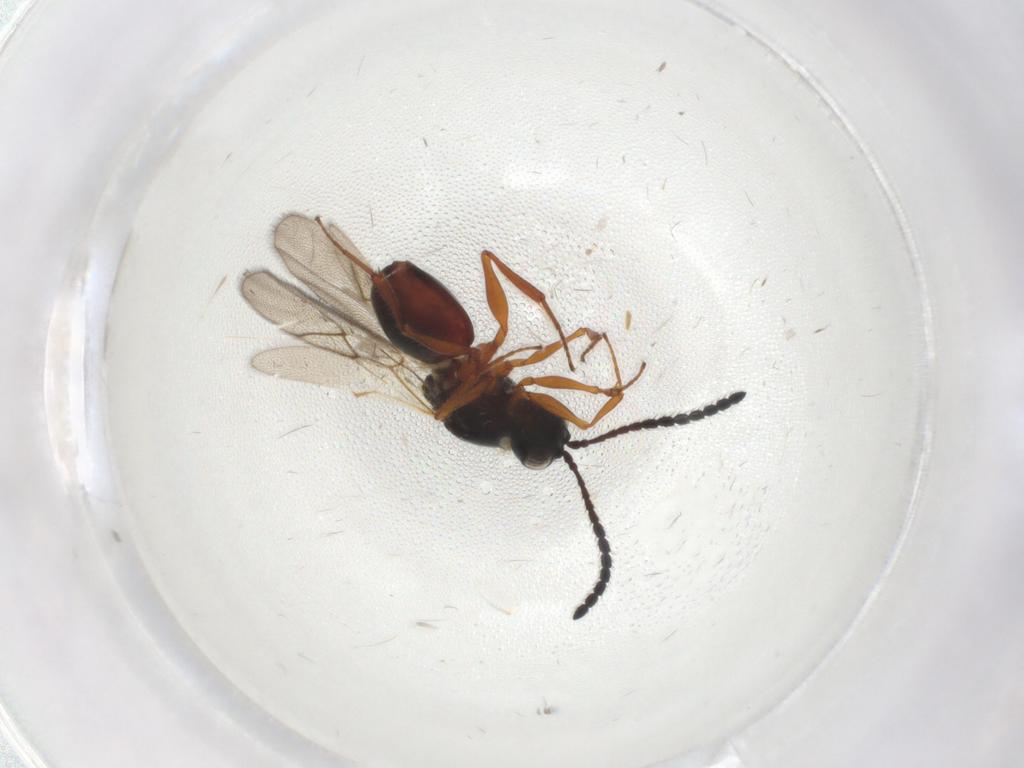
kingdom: Animalia
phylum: Arthropoda
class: Insecta
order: Hymenoptera
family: Figitidae
